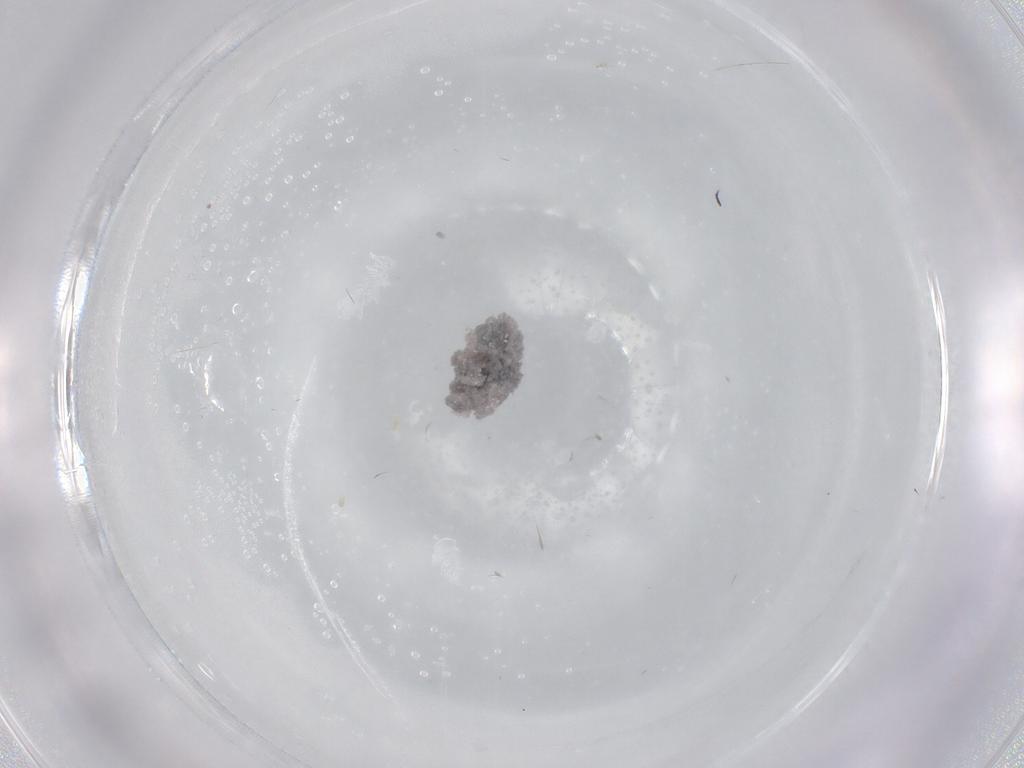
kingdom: Animalia
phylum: Arthropoda
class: Insecta
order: Diptera
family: Cecidomyiidae
